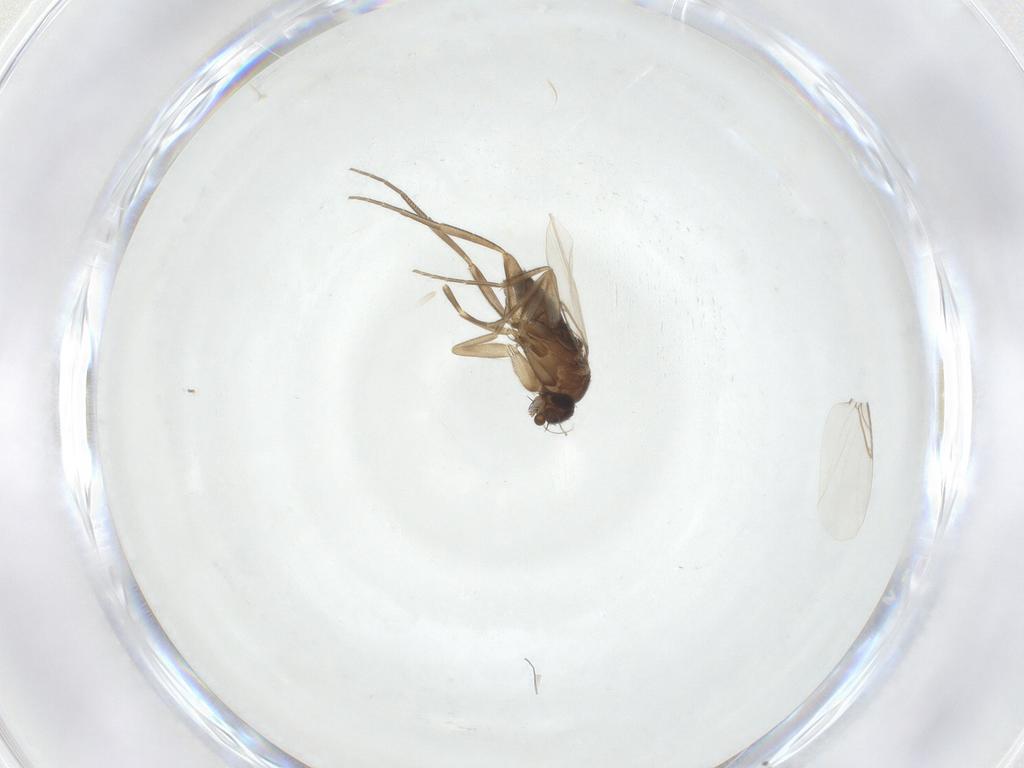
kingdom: Animalia
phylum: Arthropoda
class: Insecta
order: Diptera
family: Phoridae
